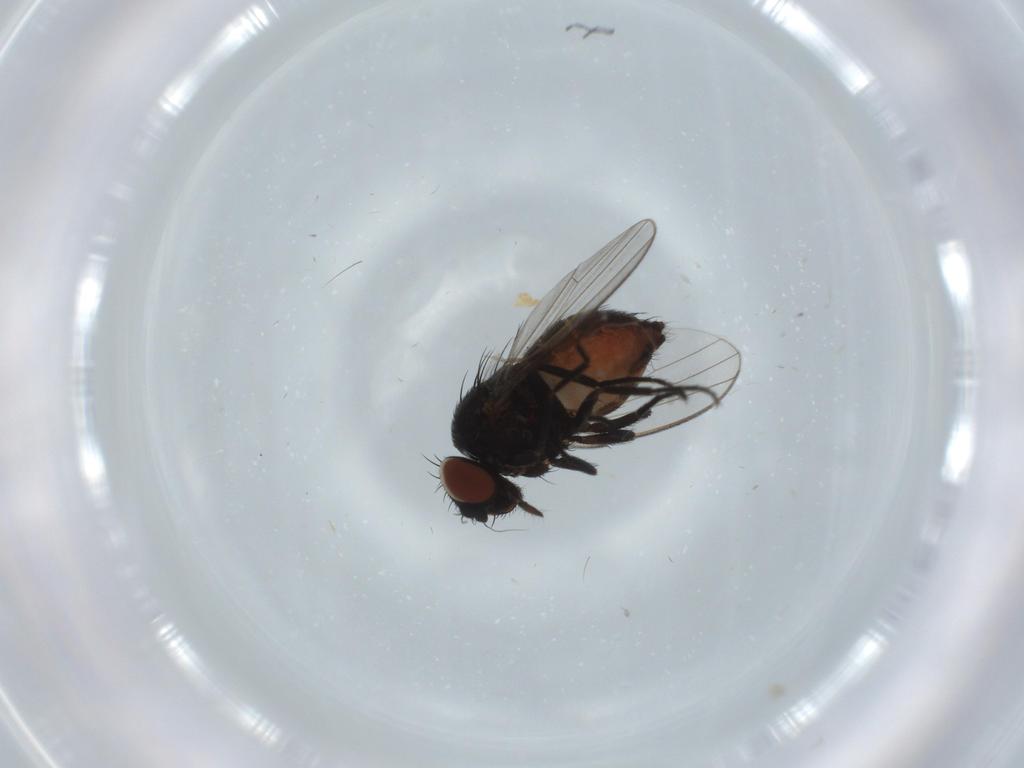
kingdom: Animalia
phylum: Arthropoda
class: Insecta
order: Diptera
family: Milichiidae
